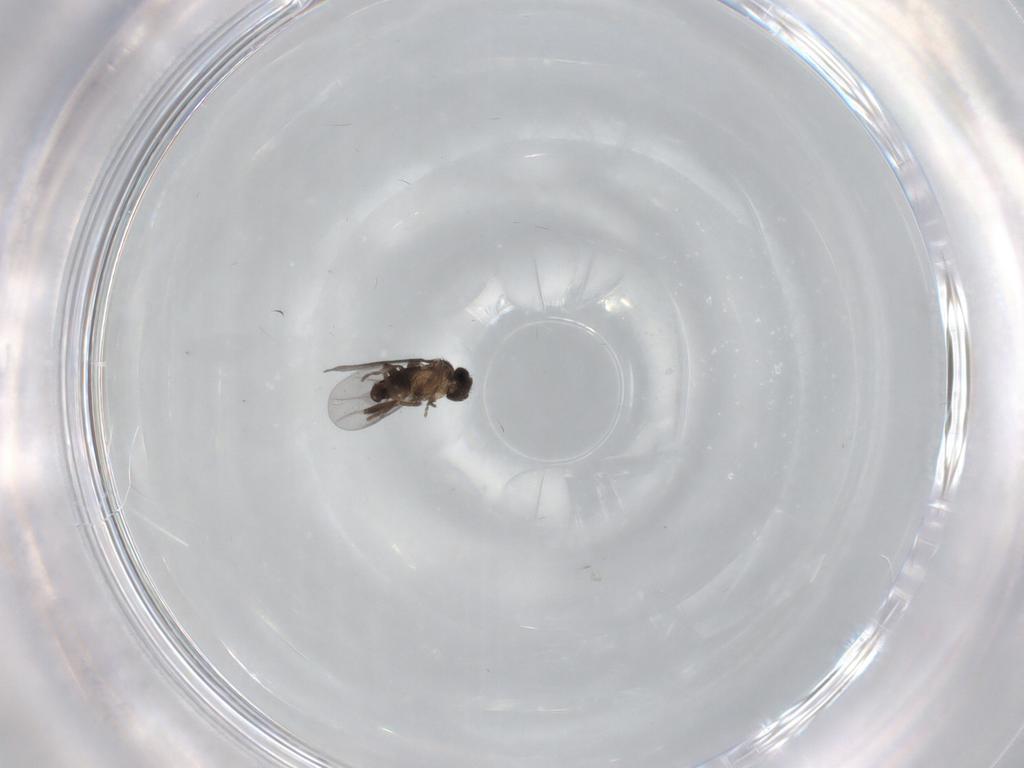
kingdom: Animalia
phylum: Arthropoda
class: Insecta
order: Diptera
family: Phoridae
